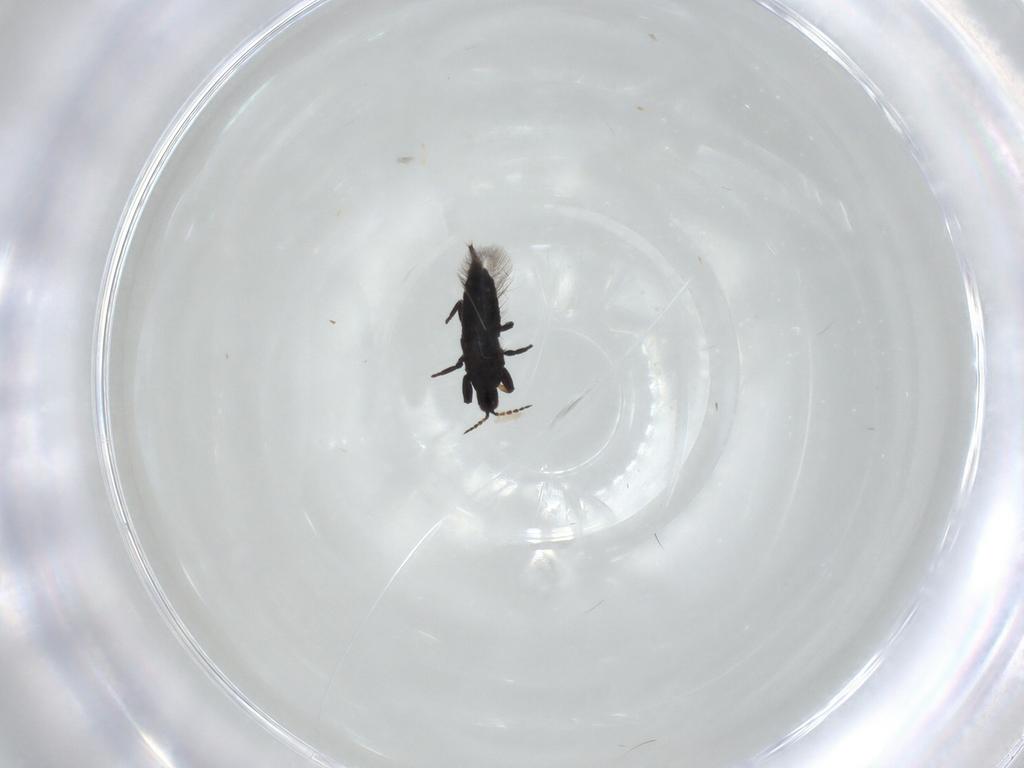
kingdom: Animalia
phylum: Arthropoda
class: Insecta
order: Thysanoptera
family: Phlaeothripidae
